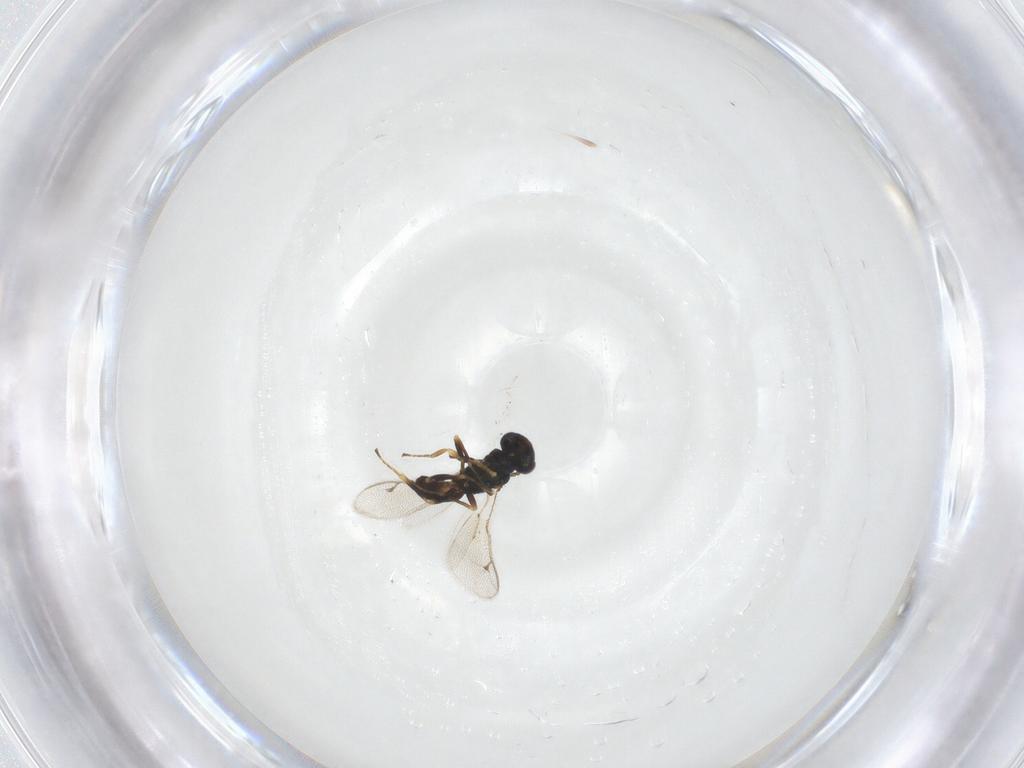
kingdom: Animalia
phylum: Arthropoda
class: Insecta
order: Hymenoptera
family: Pteromalidae
